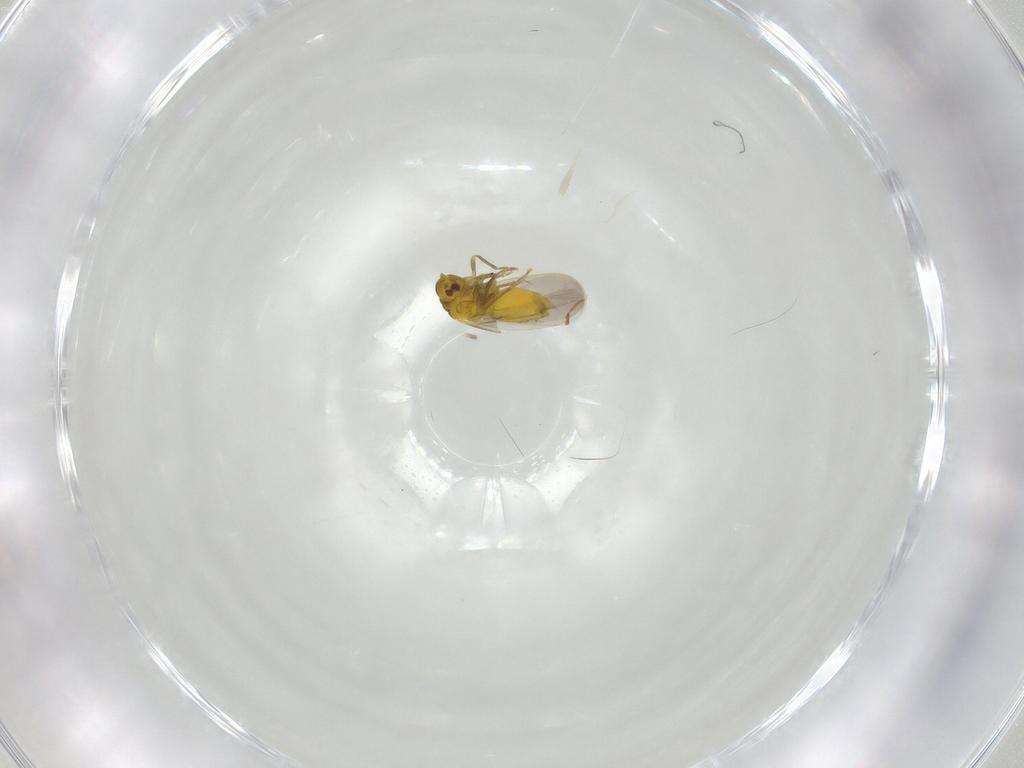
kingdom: Animalia
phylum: Arthropoda
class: Insecta
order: Hemiptera
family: Aleyrodidae
